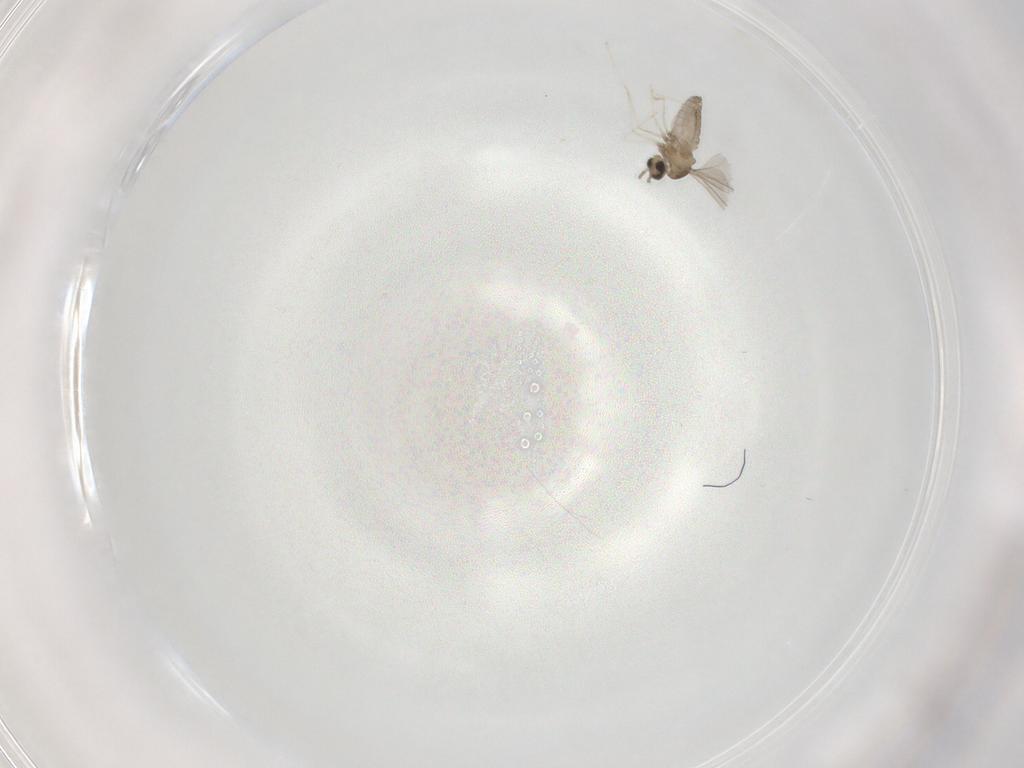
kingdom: Animalia
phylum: Arthropoda
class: Insecta
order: Diptera
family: Cecidomyiidae
